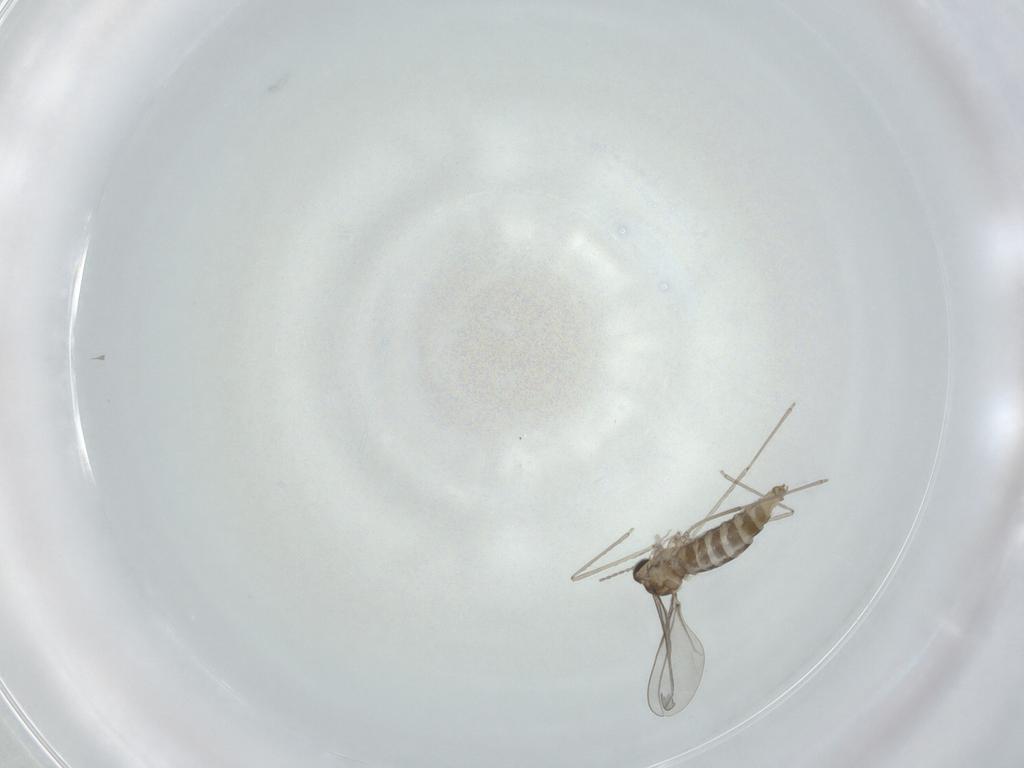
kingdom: Animalia
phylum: Arthropoda
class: Insecta
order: Diptera
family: Cecidomyiidae
